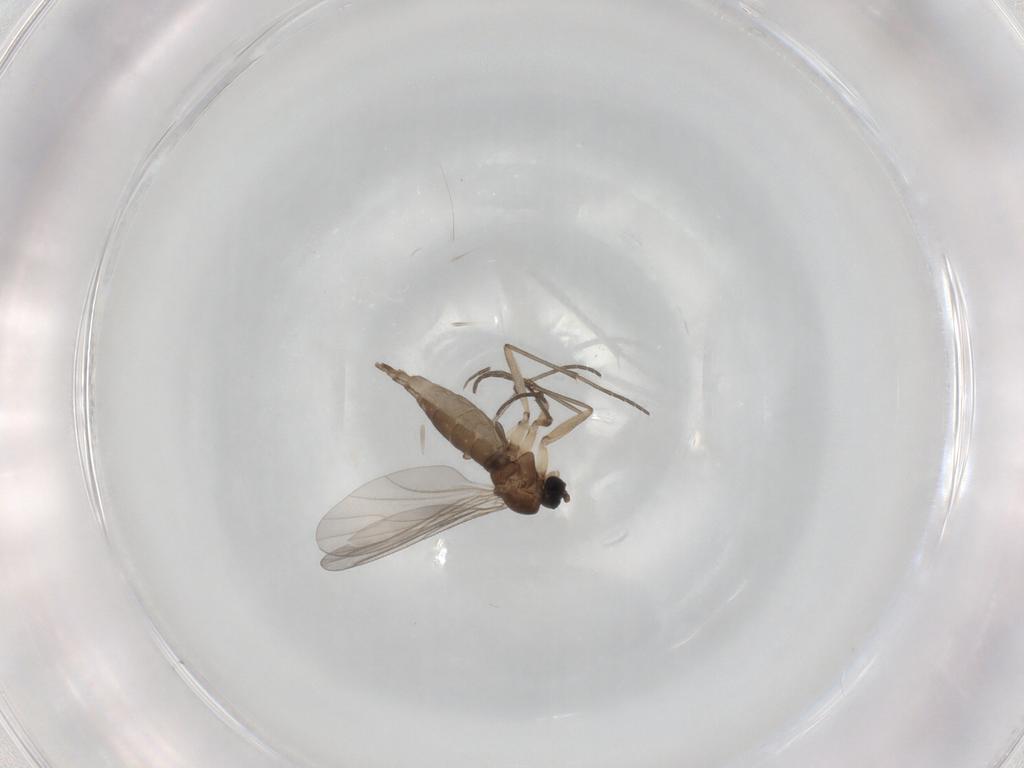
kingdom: Animalia
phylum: Arthropoda
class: Insecta
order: Diptera
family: Sciaridae
